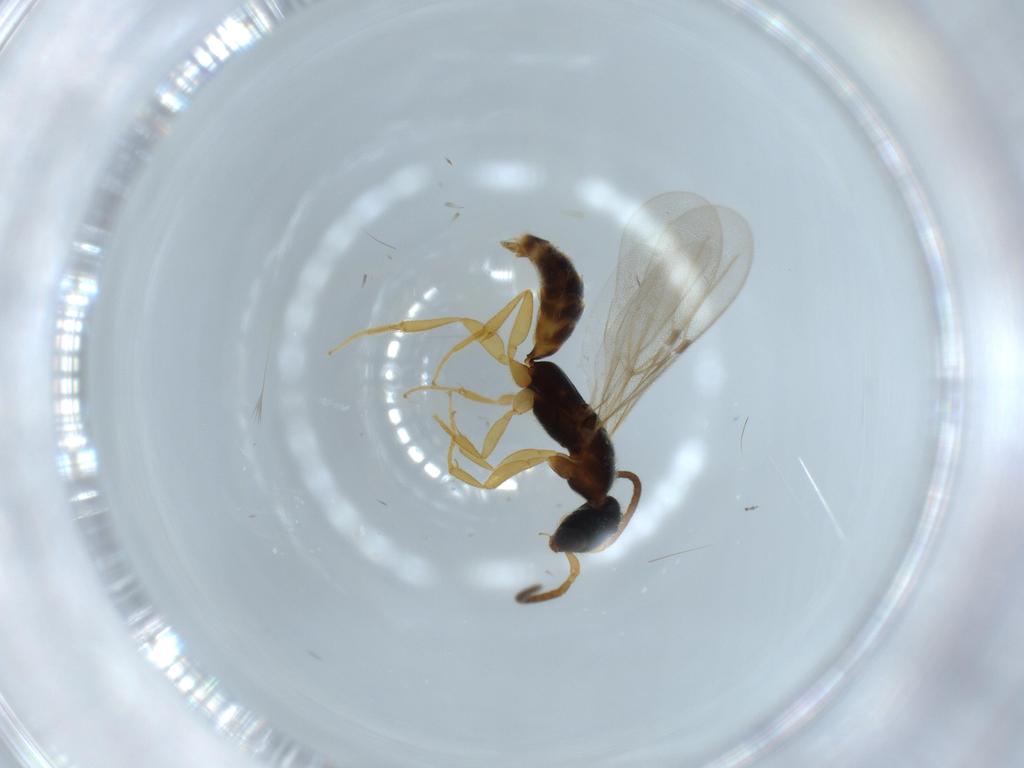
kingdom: Animalia
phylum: Arthropoda
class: Insecta
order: Hymenoptera
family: Bethylidae
